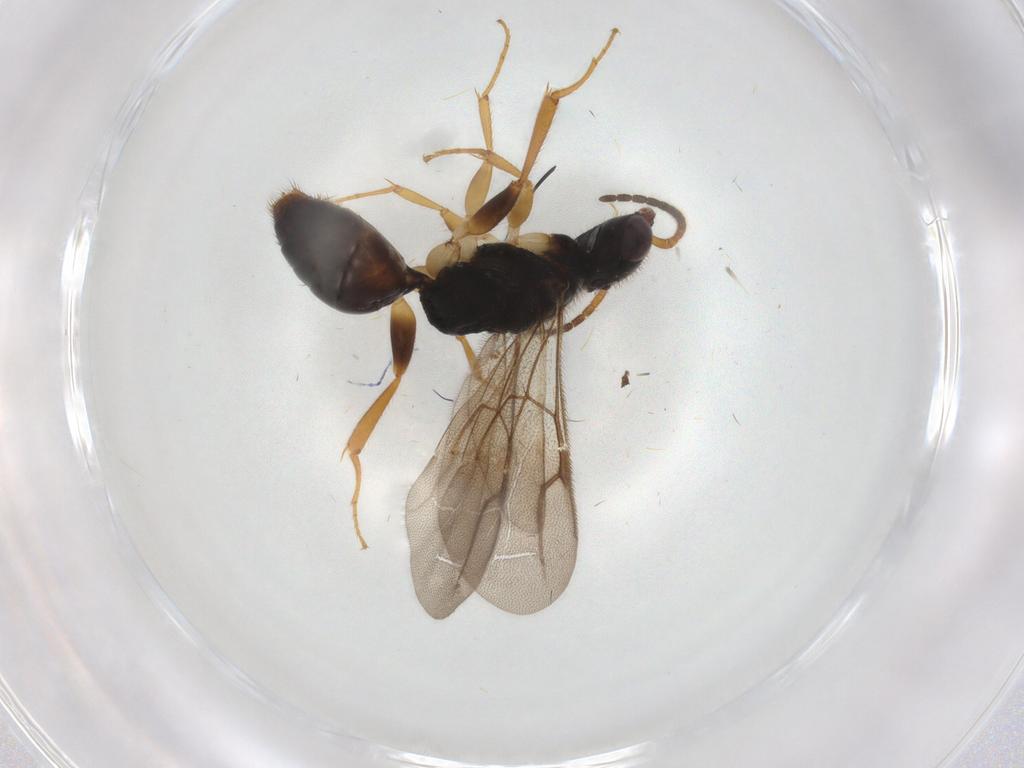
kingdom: Animalia
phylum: Arthropoda
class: Insecta
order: Hymenoptera
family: Bethylidae
